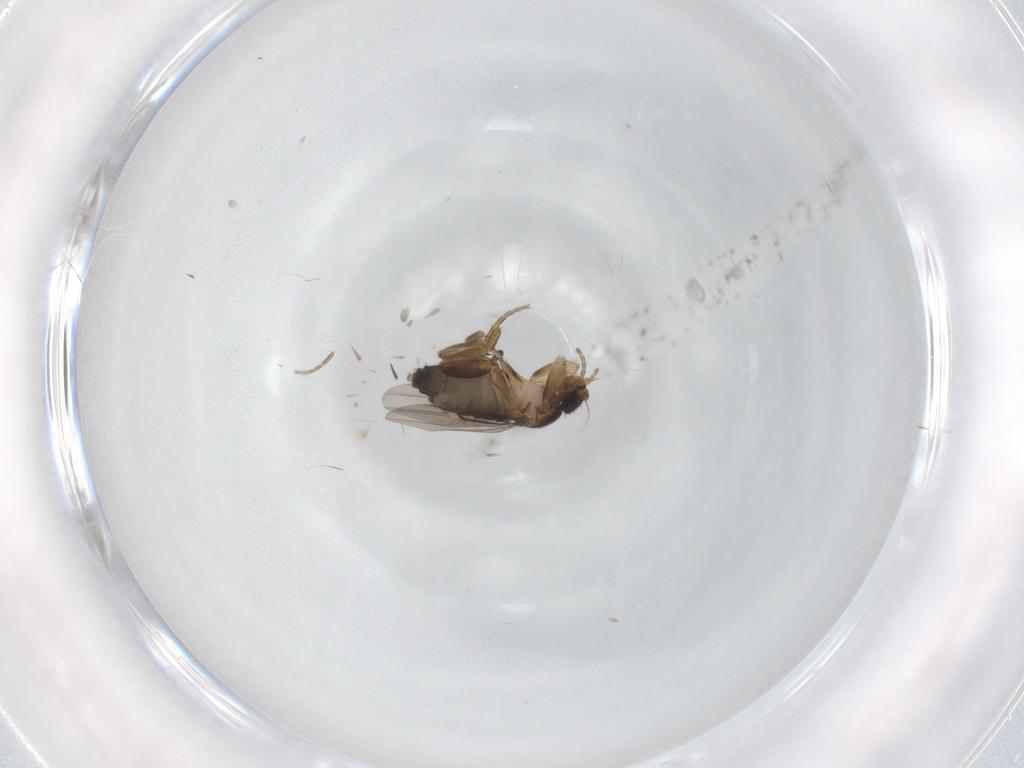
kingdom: Animalia
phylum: Arthropoda
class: Insecta
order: Diptera
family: Phoridae
